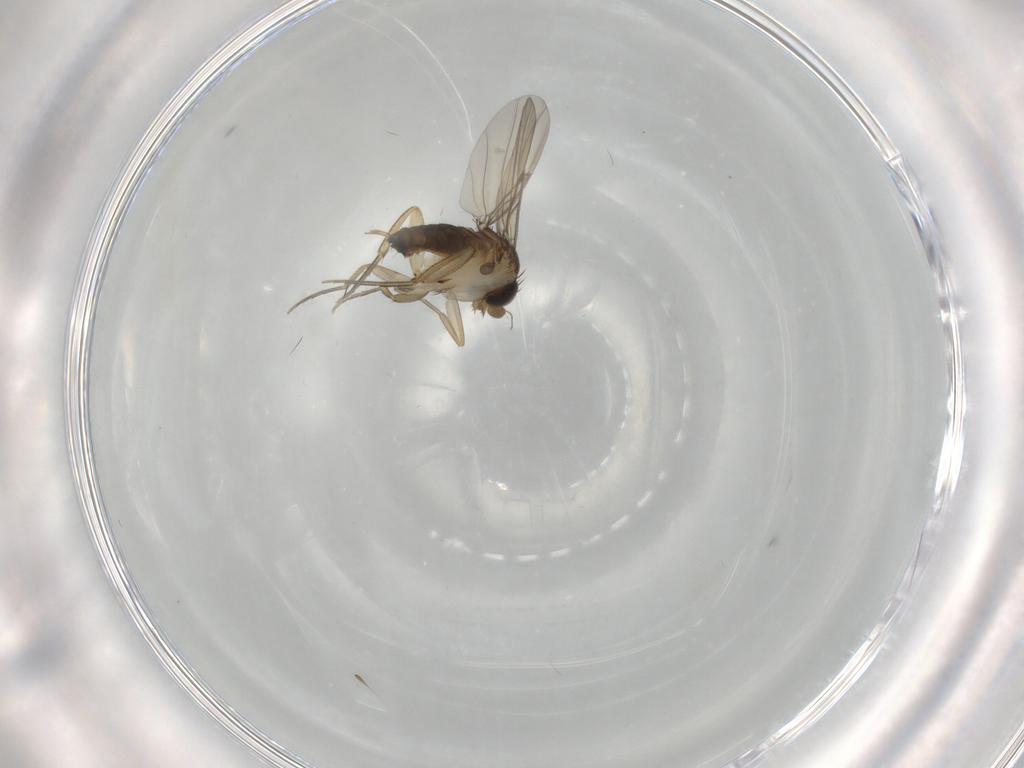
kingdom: Animalia
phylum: Arthropoda
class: Insecta
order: Diptera
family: Phoridae
